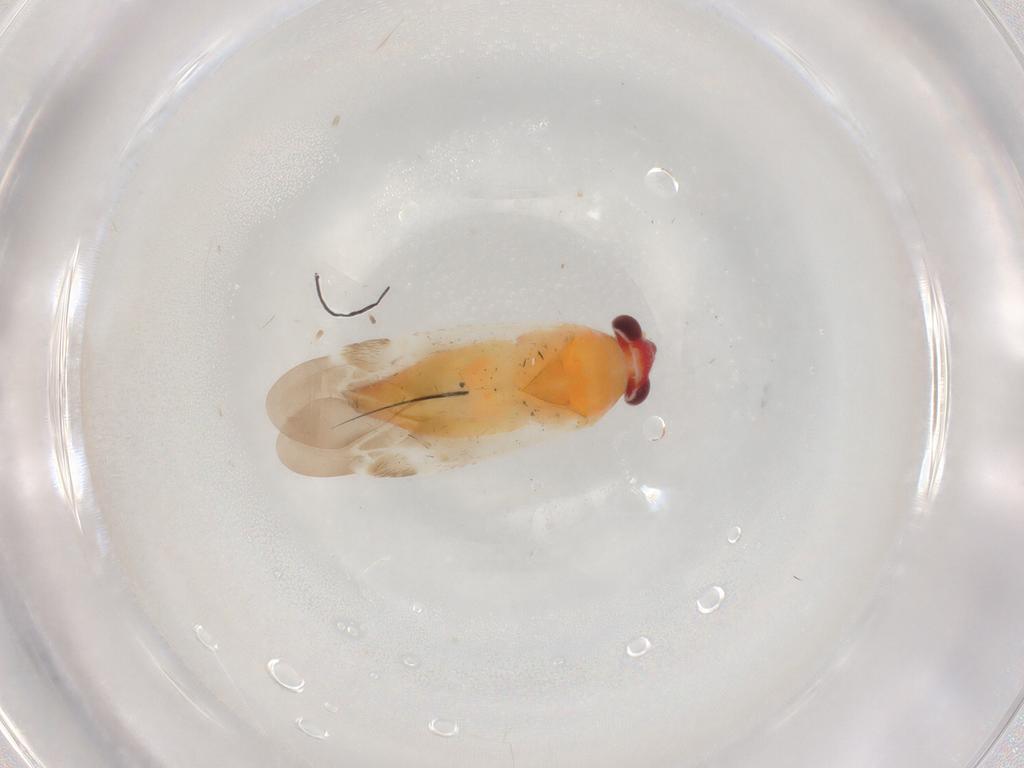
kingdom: Animalia
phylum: Arthropoda
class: Insecta
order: Hemiptera
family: Miridae
